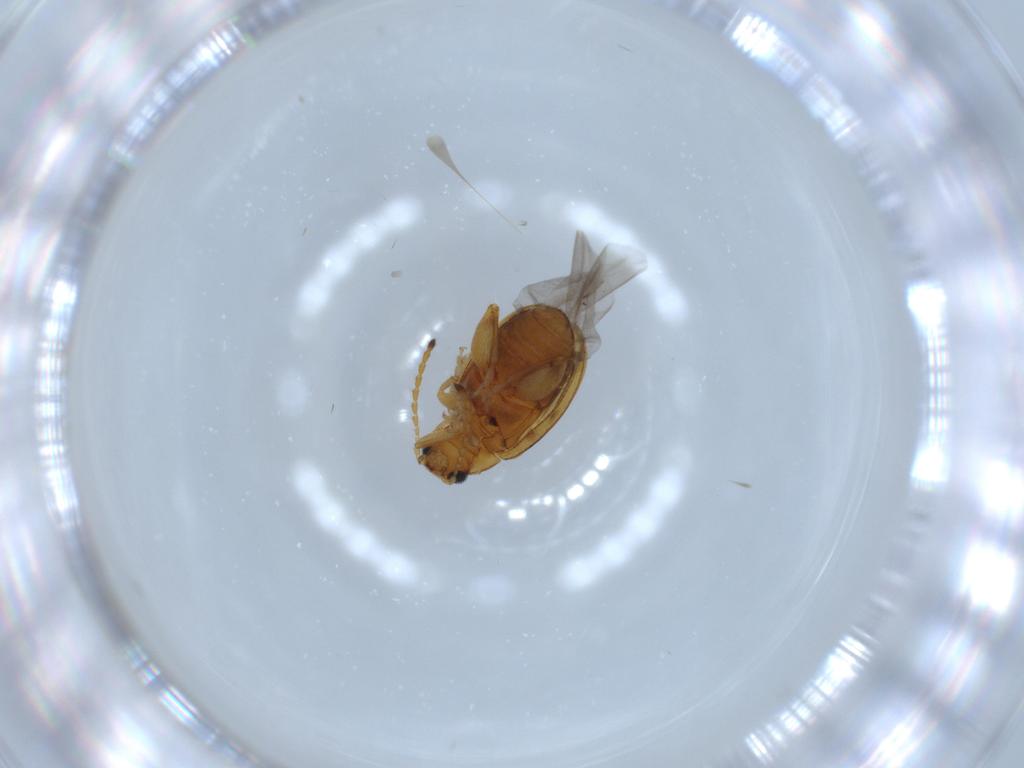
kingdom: Animalia
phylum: Arthropoda
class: Insecta
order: Coleoptera
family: Chrysomelidae
